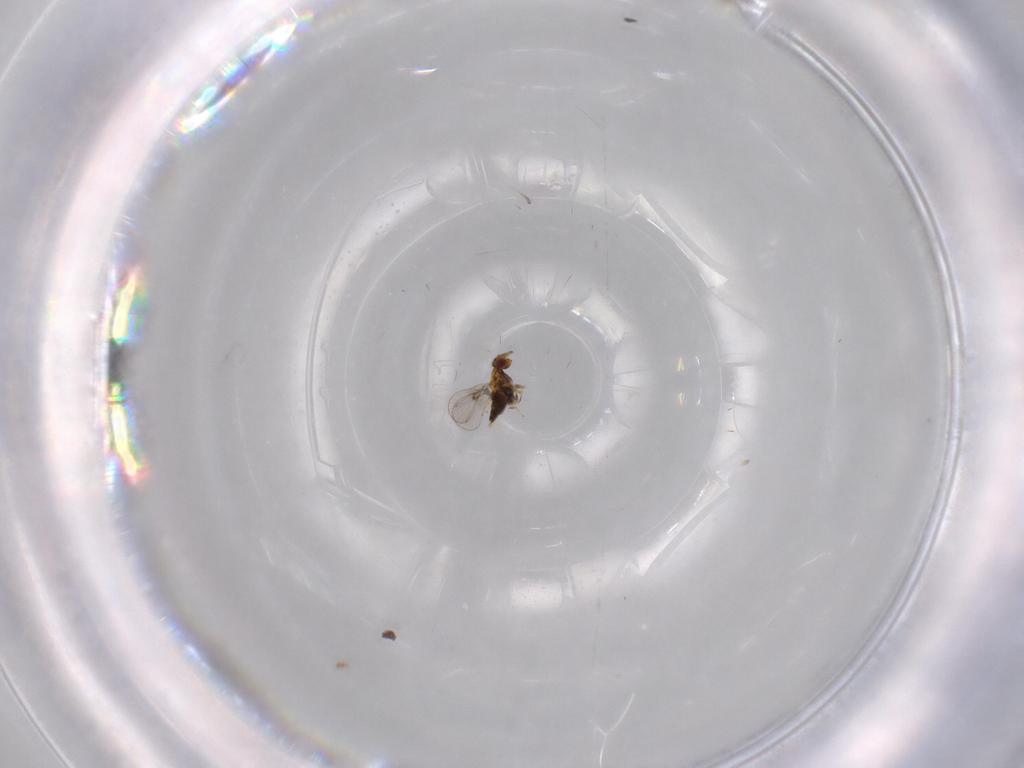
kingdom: Animalia
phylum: Arthropoda
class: Insecta
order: Hymenoptera
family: Trichogrammatidae
